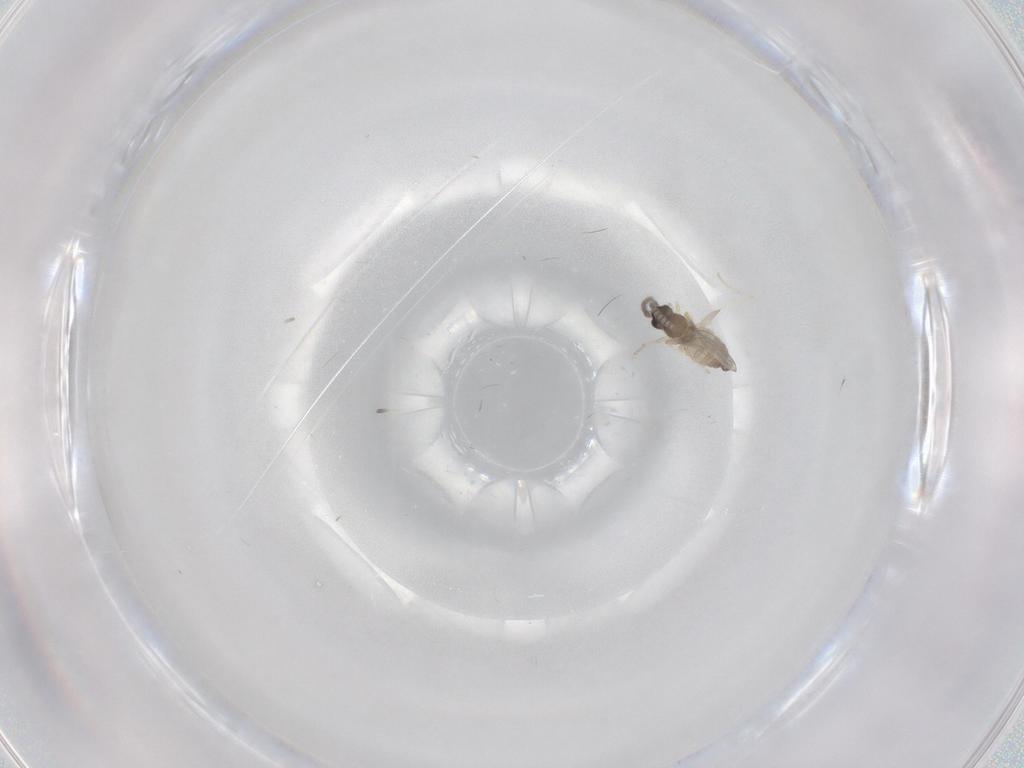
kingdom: Animalia
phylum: Arthropoda
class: Insecta
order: Diptera
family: Cecidomyiidae
